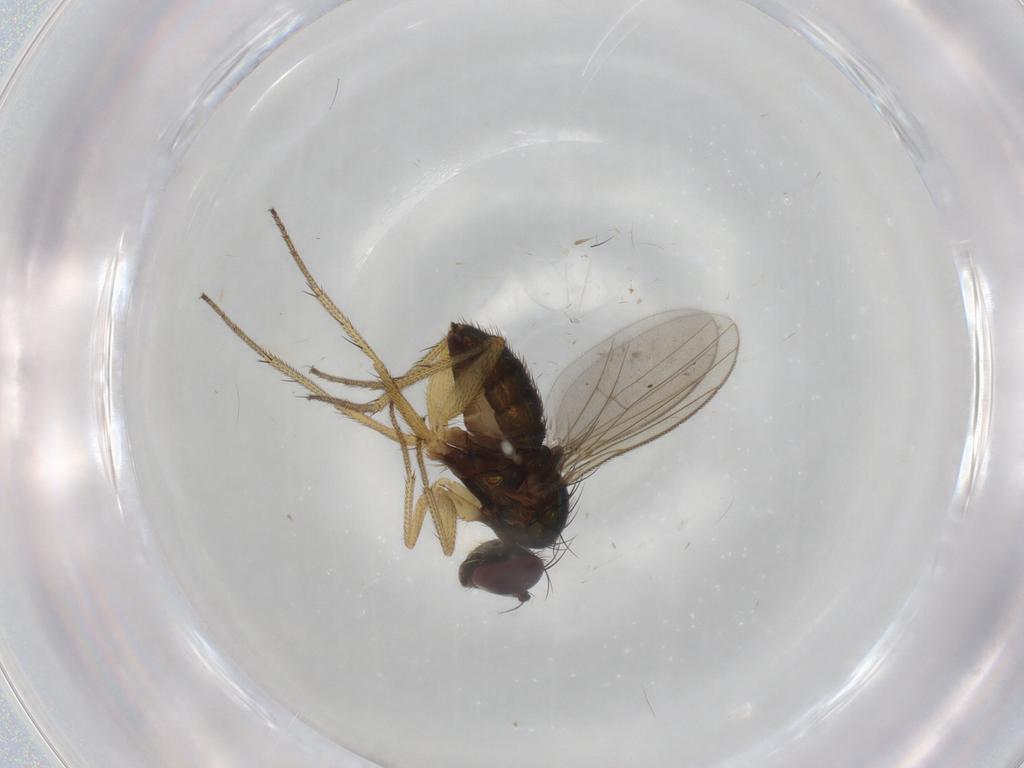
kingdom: Animalia
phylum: Arthropoda
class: Insecta
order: Diptera
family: Dolichopodidae
